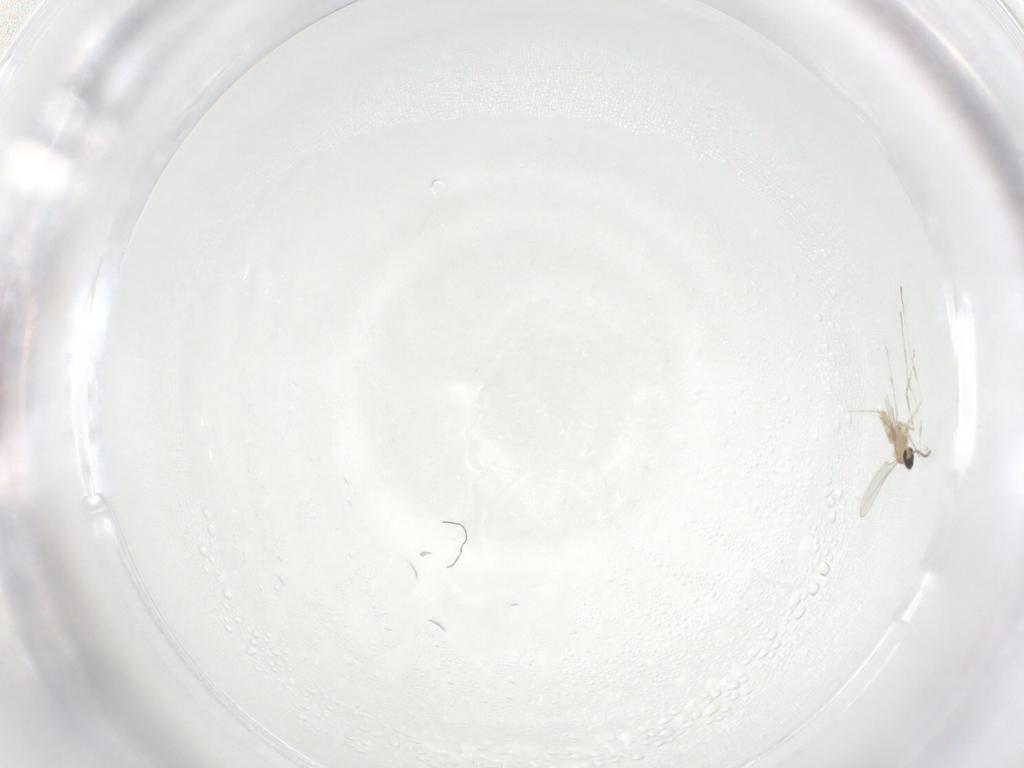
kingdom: Animalia
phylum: Arthropoda
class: Insecta
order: Diptera
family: Cecidomyiidae
